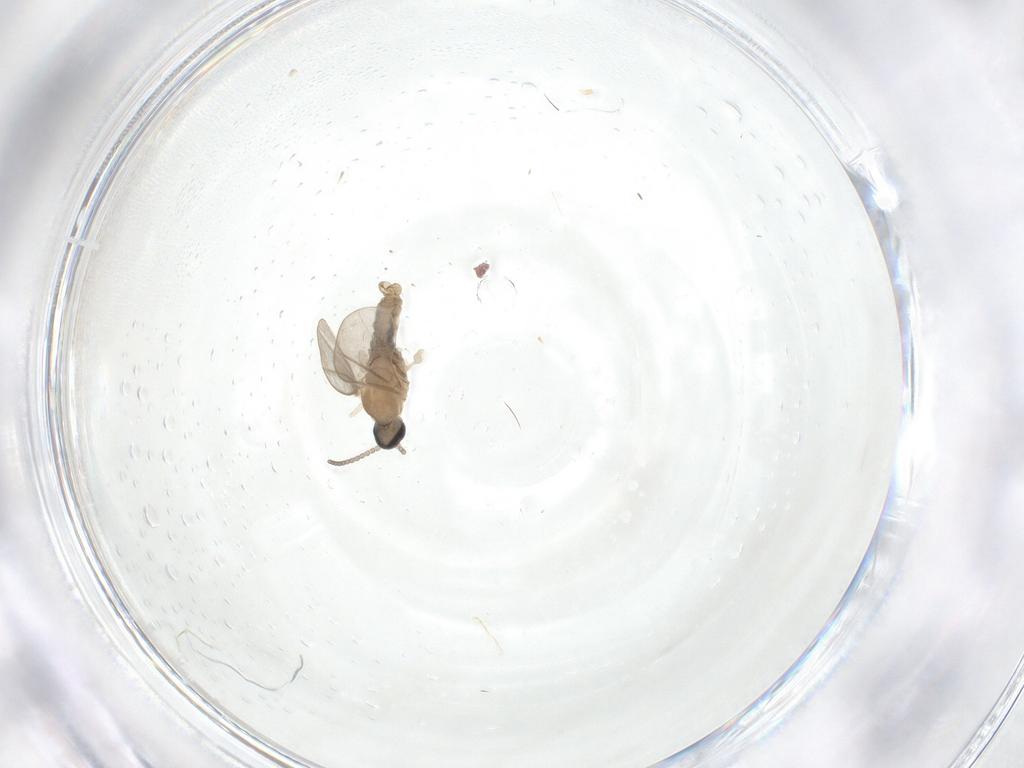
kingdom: Animalia
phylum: Arthropoda
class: Insecta
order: Diptera
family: Cecidomyiidae
